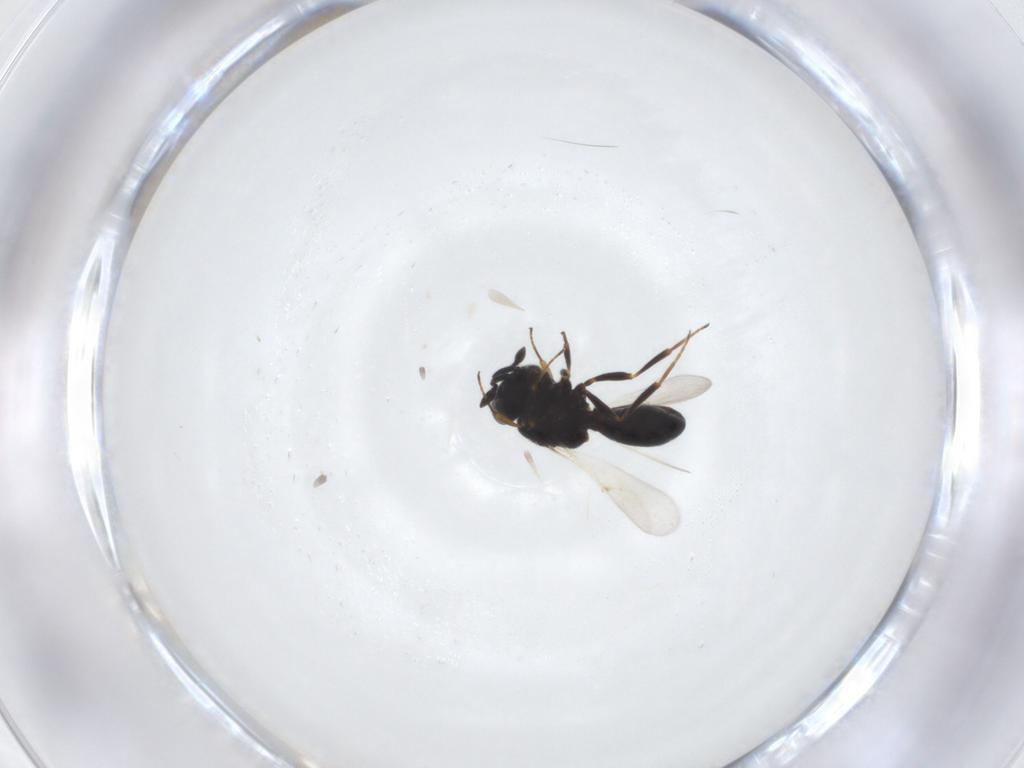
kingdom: Animalia
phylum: Arthropoda
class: Insecta
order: Hymenoptera
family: Scelionidae
